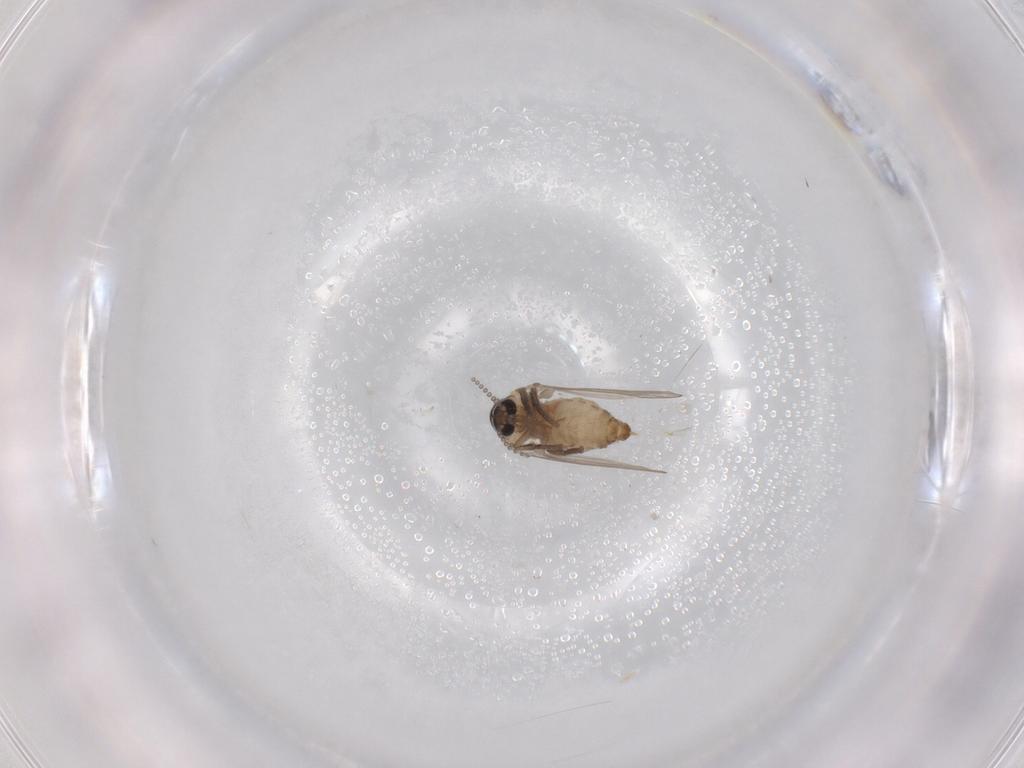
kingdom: Animalia
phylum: Arthropoda
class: Insecta
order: Diptera
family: Psychodidae
